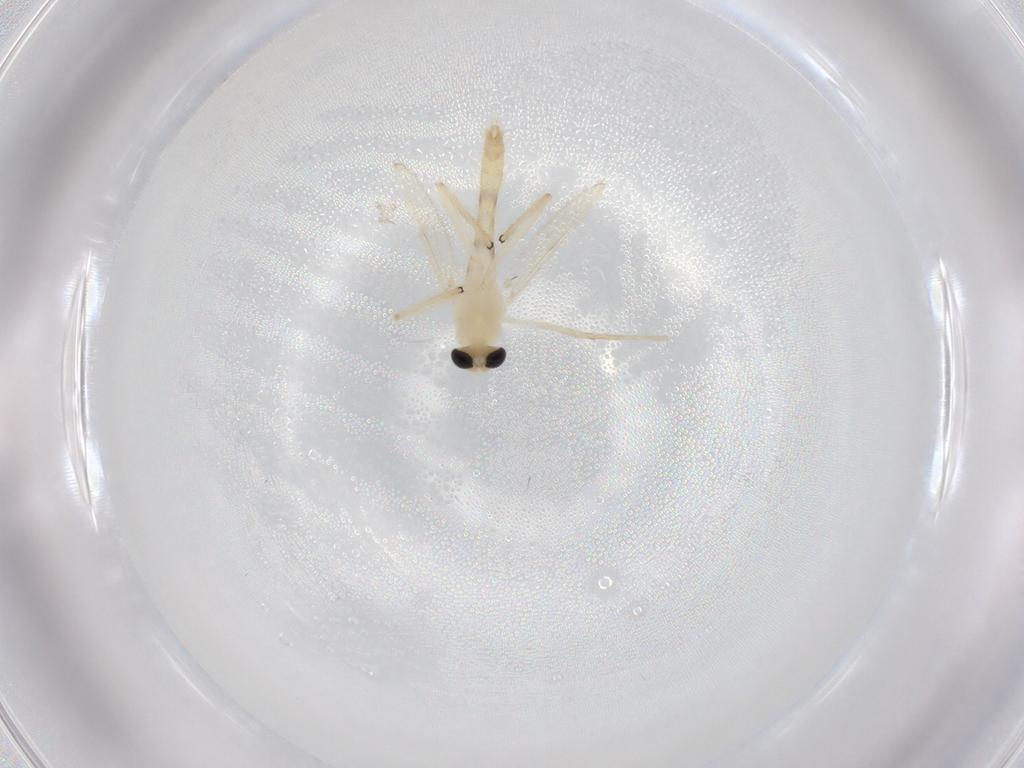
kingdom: Animalia
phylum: Arthropoda
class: Insecta
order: Diptera
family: Chironomidae
